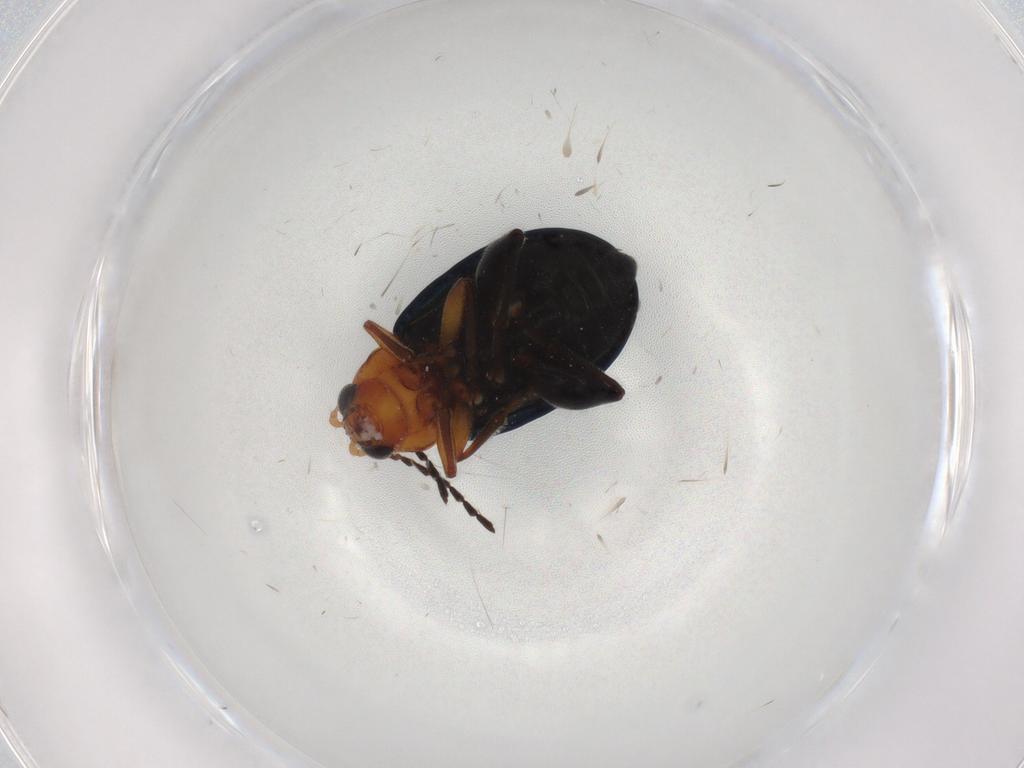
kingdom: Animalia
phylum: Arthropoda
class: Insecta
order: Coleoptera
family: Chrysomelidae
